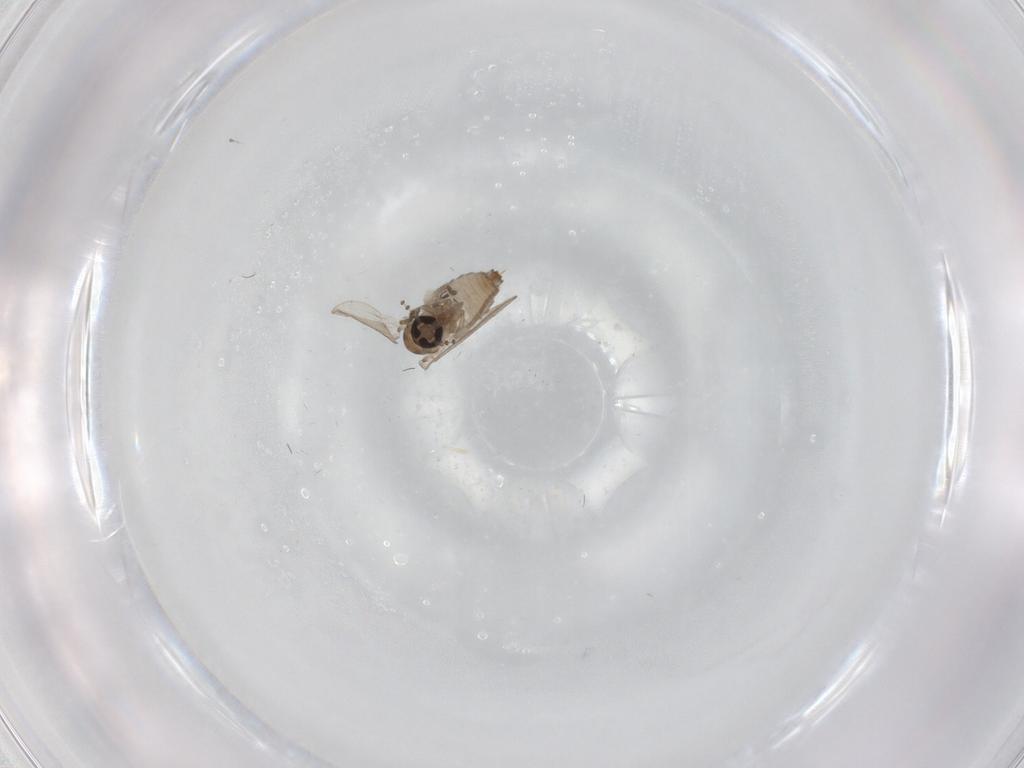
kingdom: Animalia
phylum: Arthropoda
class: Insecta
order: Diptera
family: Psychodidae
